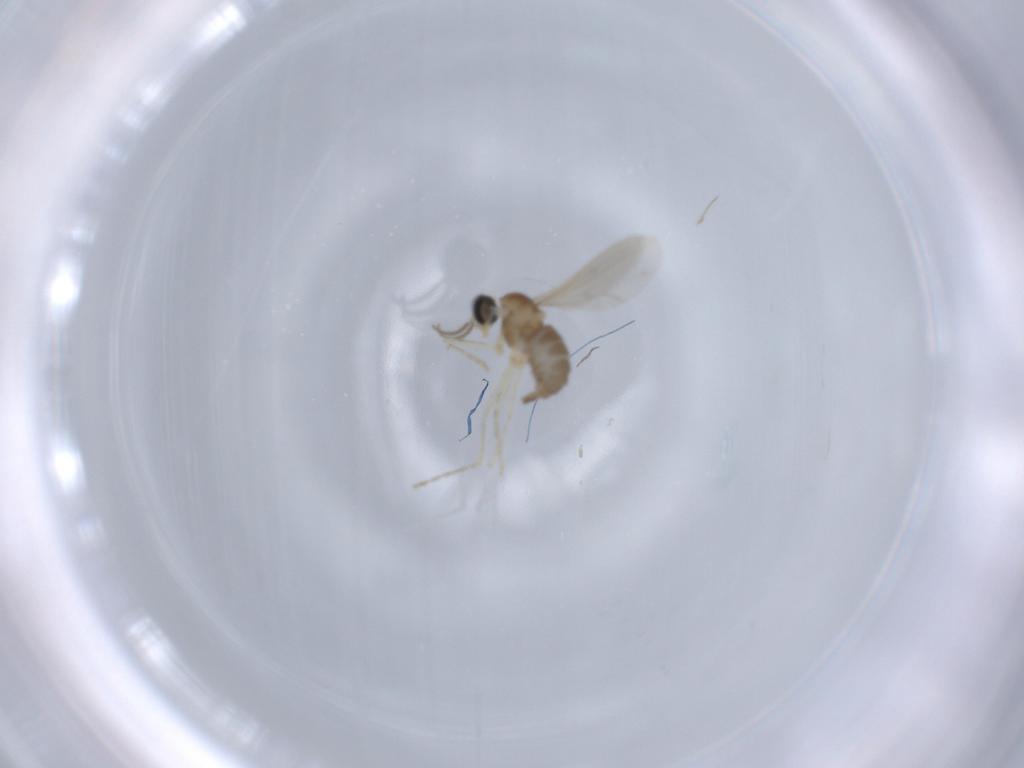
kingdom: Animalia
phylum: Arthropoda
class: Insecta
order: Diptera
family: Cecidomyiidae
